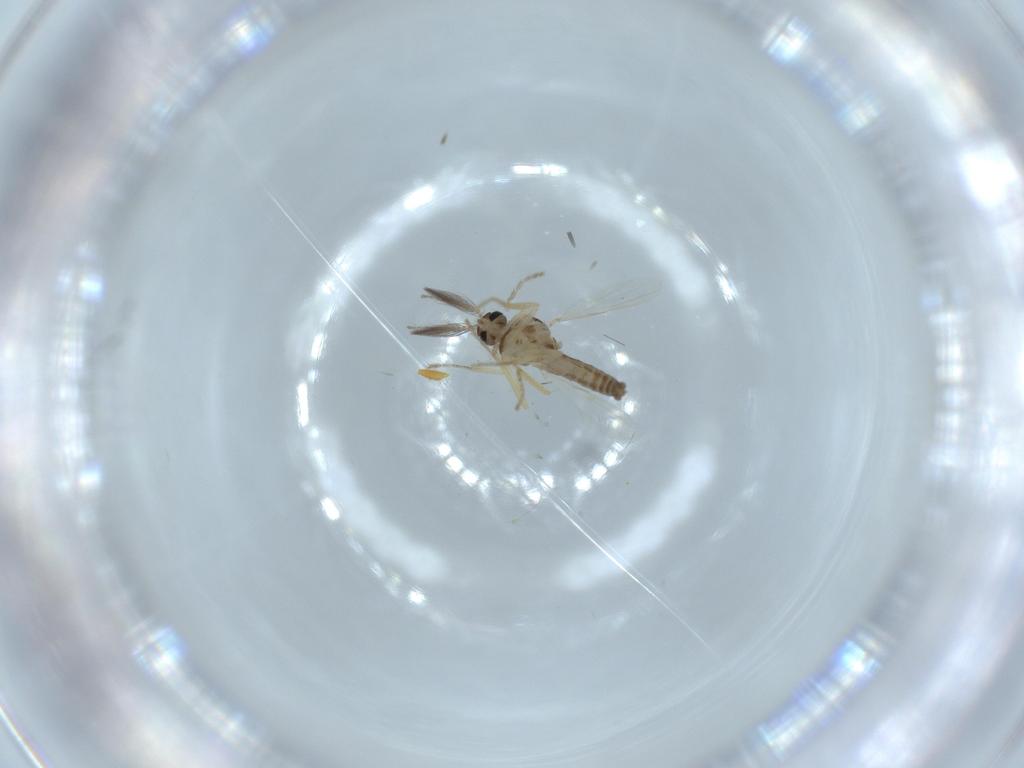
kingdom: Animalia
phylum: Arthropoda
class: Insecta
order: Diptera
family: Ceratopogonidae
